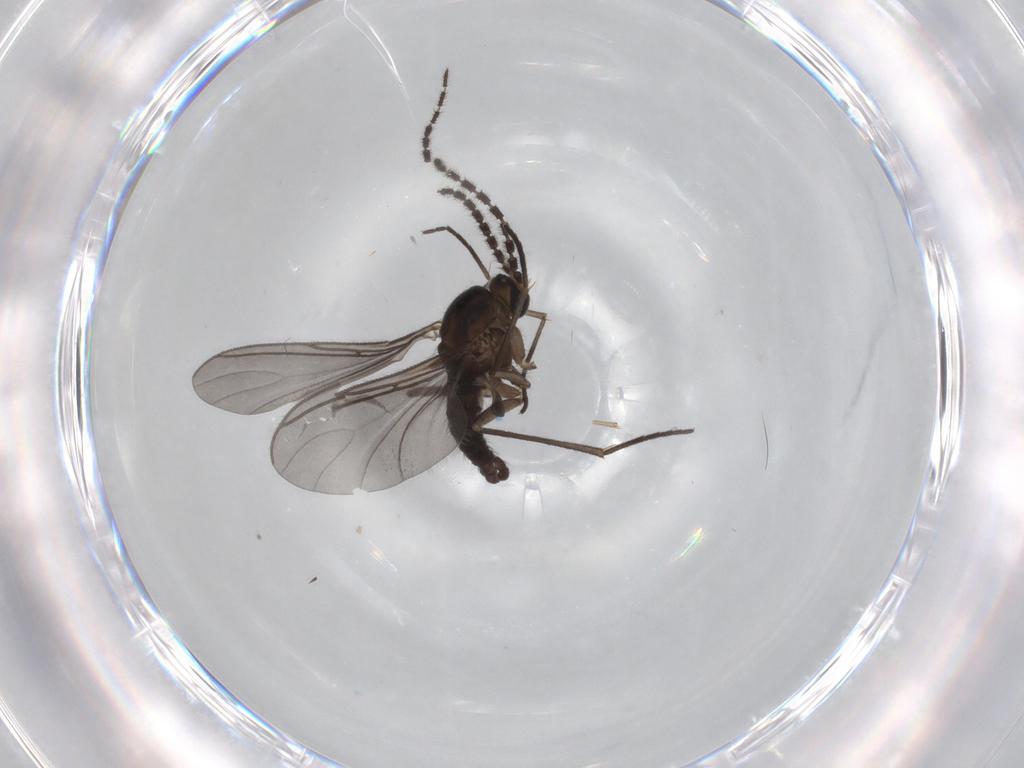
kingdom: Animalia
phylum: Arthropoda
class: Insecta
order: Diptera
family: Sciaridae
